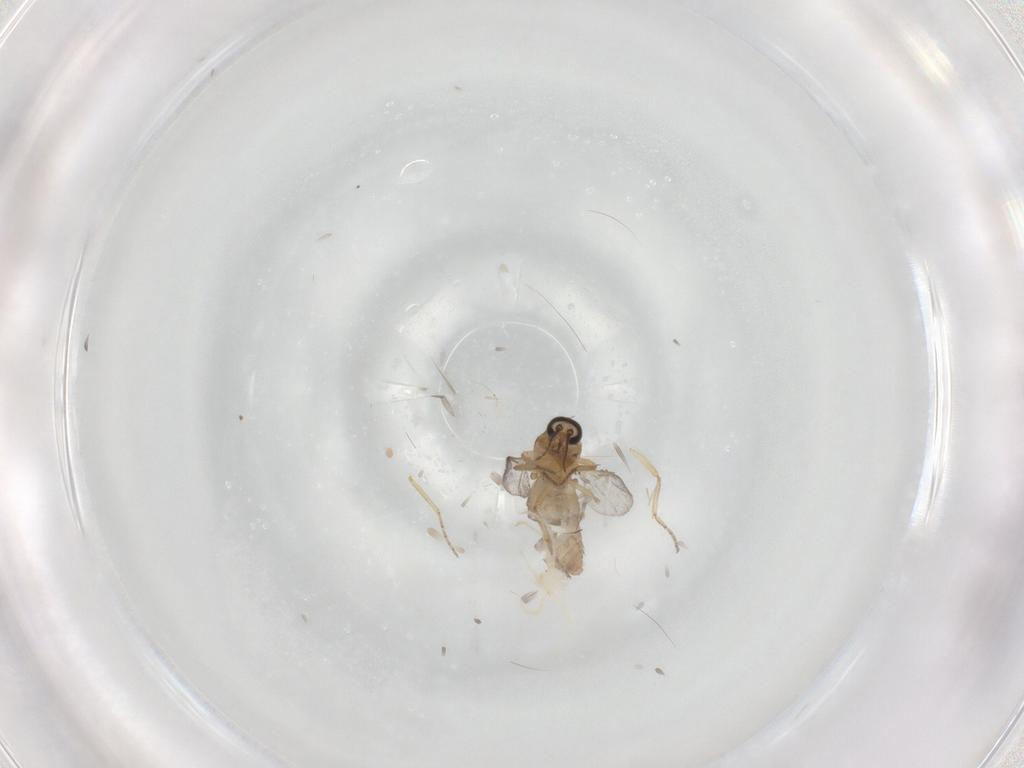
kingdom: Animalia
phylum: Arthropoda
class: Insecta
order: Diptera
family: Ceratopogonidae
